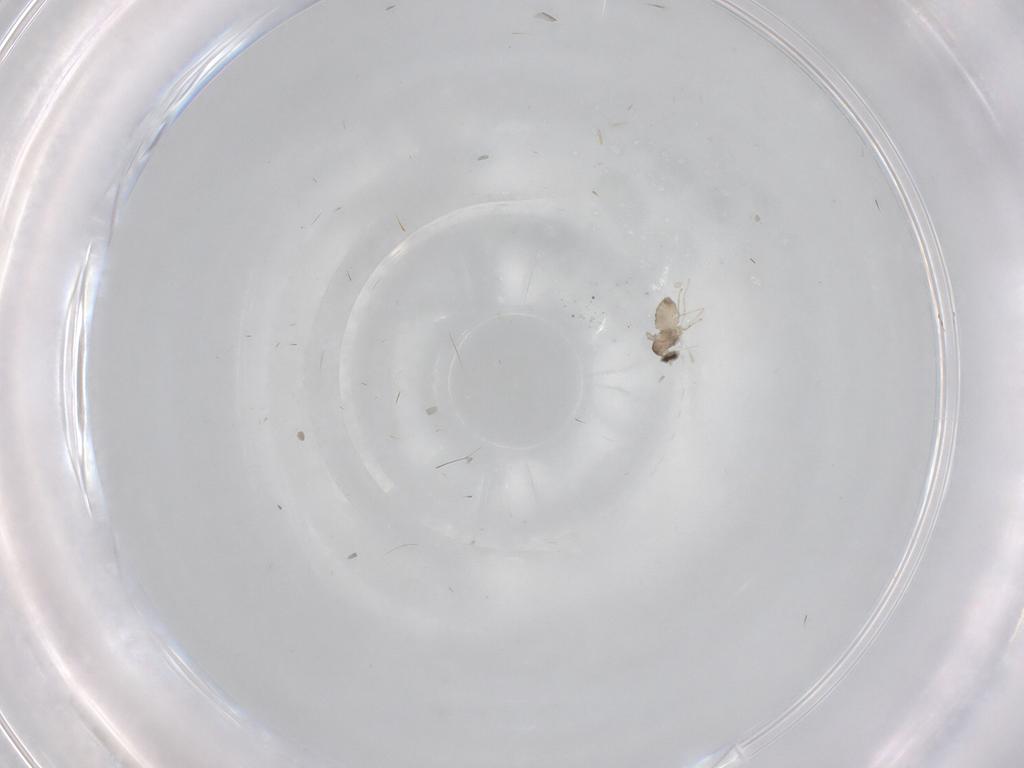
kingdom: Animalia
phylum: Arthropoda
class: Insecta
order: Diptera
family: Cecidomyiidae
